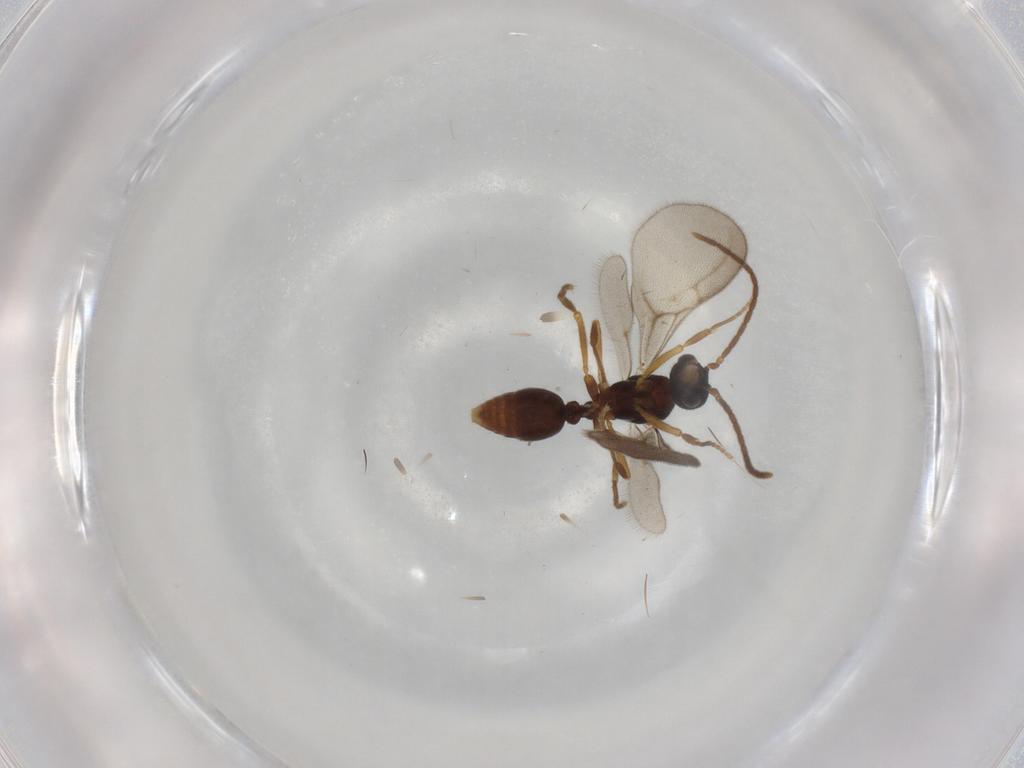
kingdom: Animalia
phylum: Arthropoda
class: Insecta
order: Hymenoptera
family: Formicidae
